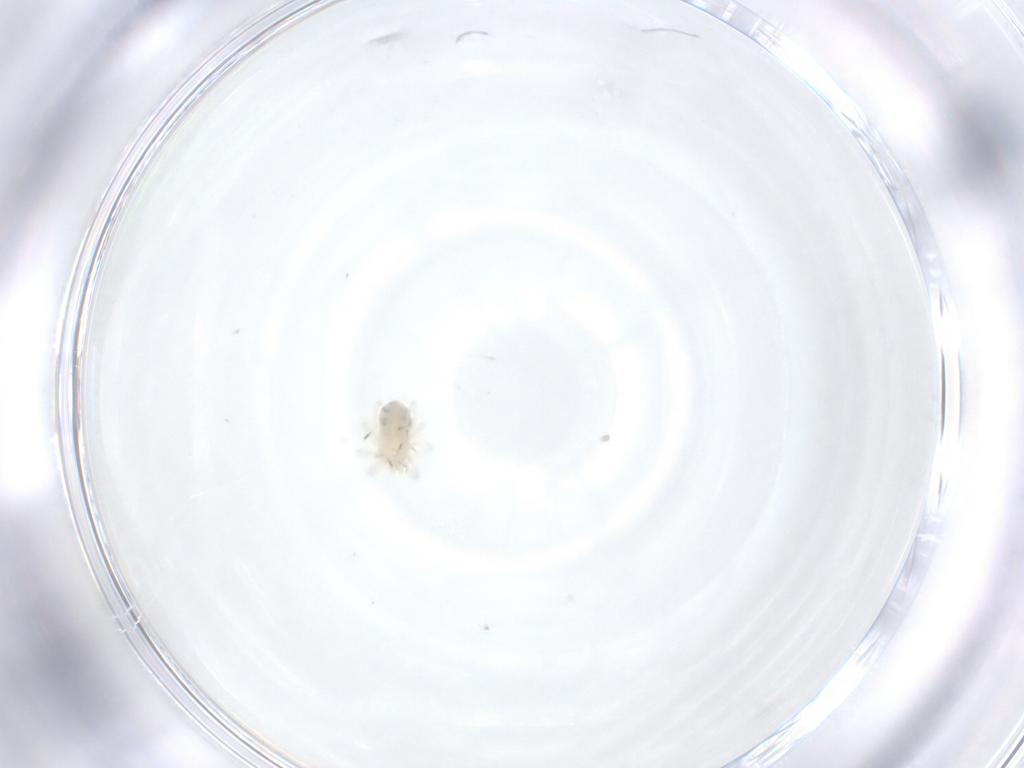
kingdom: Animalia
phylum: Arthropoda
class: Arachnida
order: Trombidiformes
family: Anystidae
